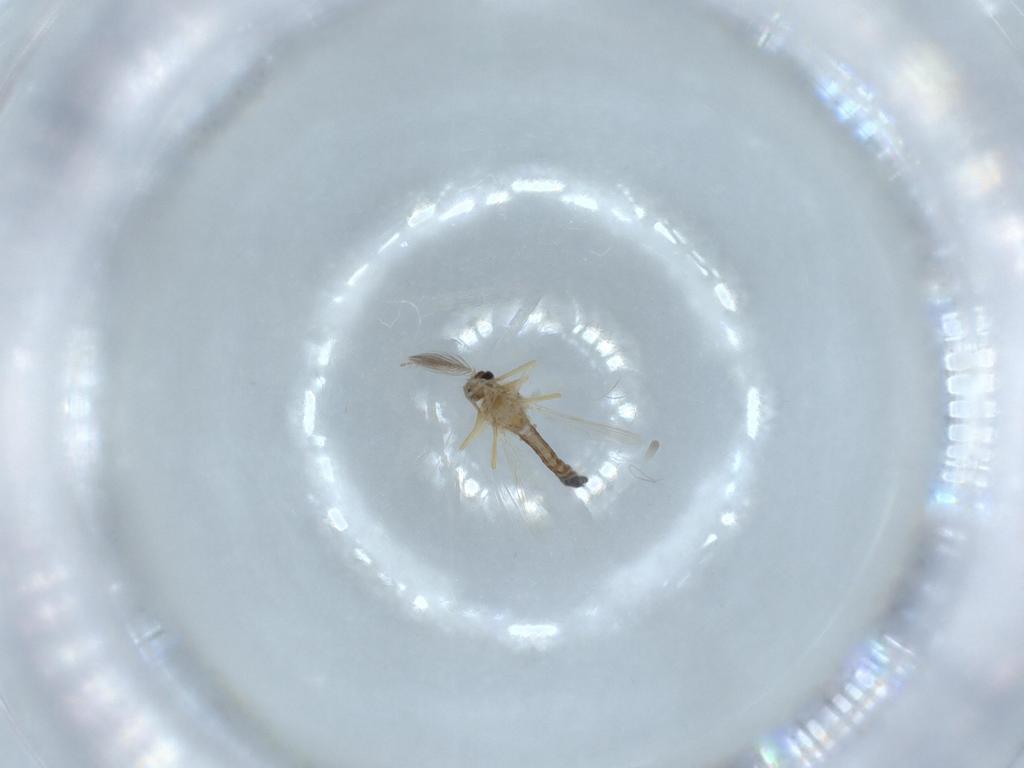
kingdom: Animalia
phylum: Arthropoda
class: Insecta
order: Diptera
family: Ceratopogonidae
